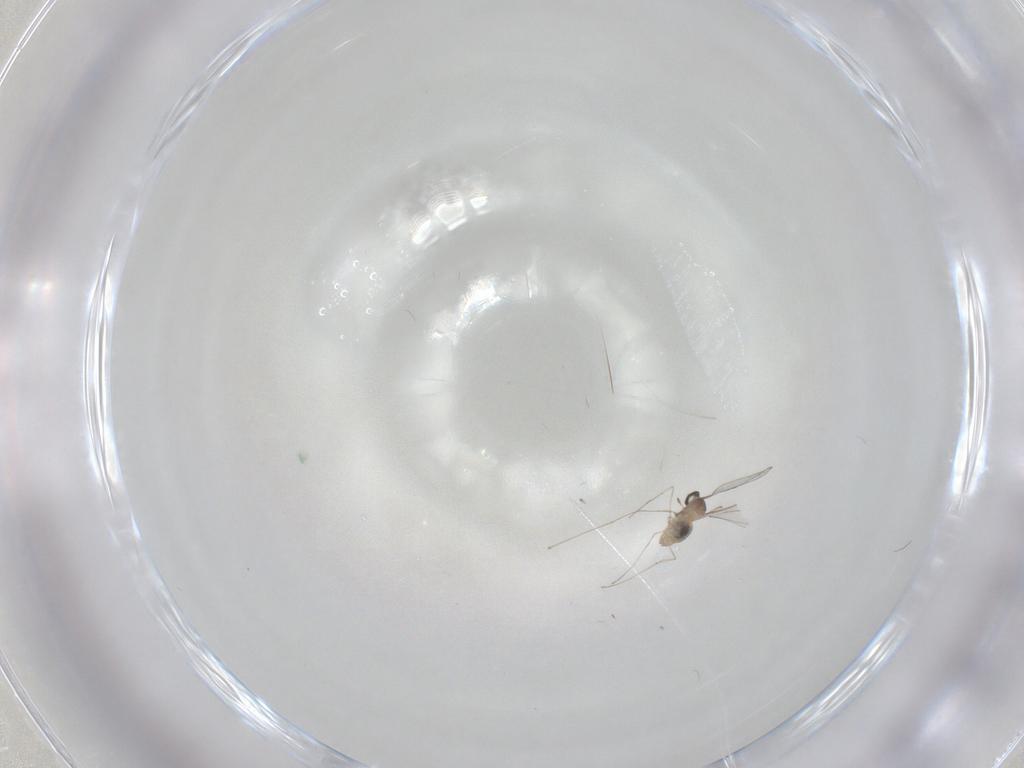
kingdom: Animalia
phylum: Arthropoda
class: Insecta
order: Diptera
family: Cecidomyiidae
